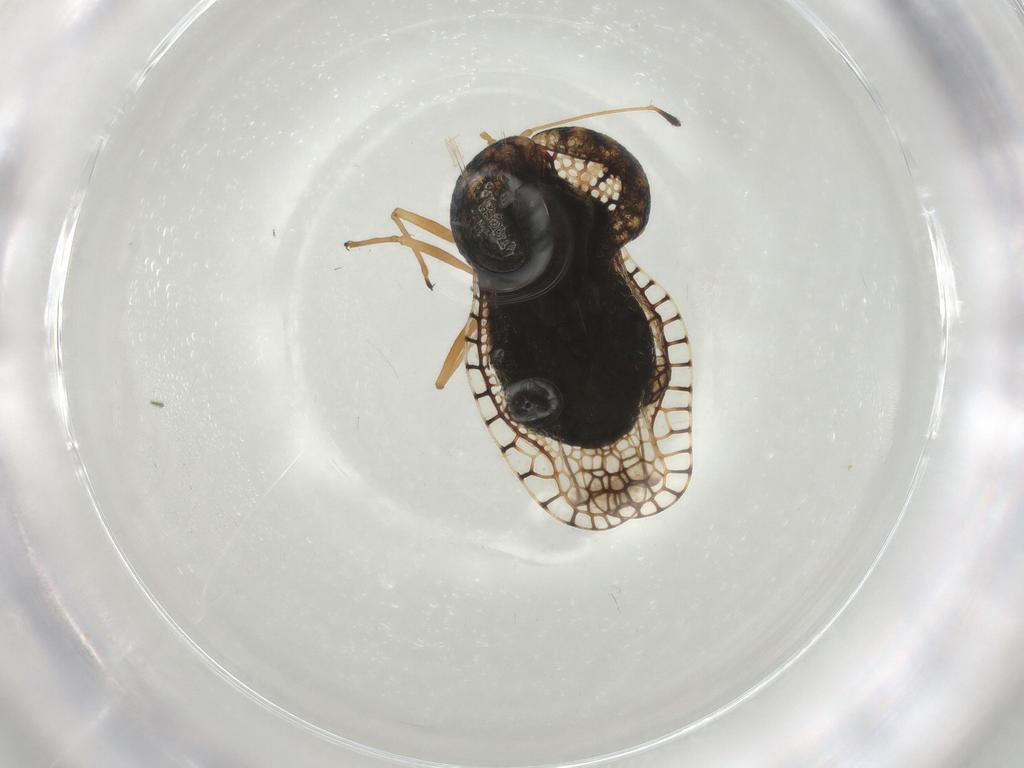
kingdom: Animalia
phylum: Arthropoda
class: Insecta
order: Hemiptera
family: Tingidae
